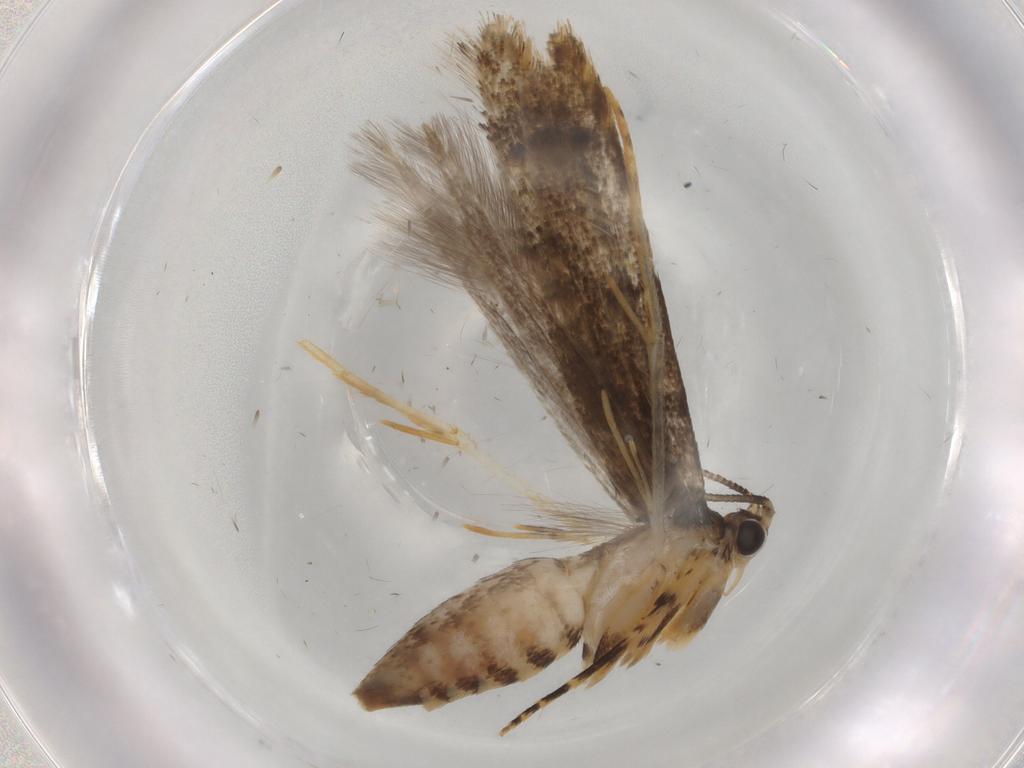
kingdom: Animalia
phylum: Arthropoda
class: Insecta
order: Lepidoptera
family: Tineidae
